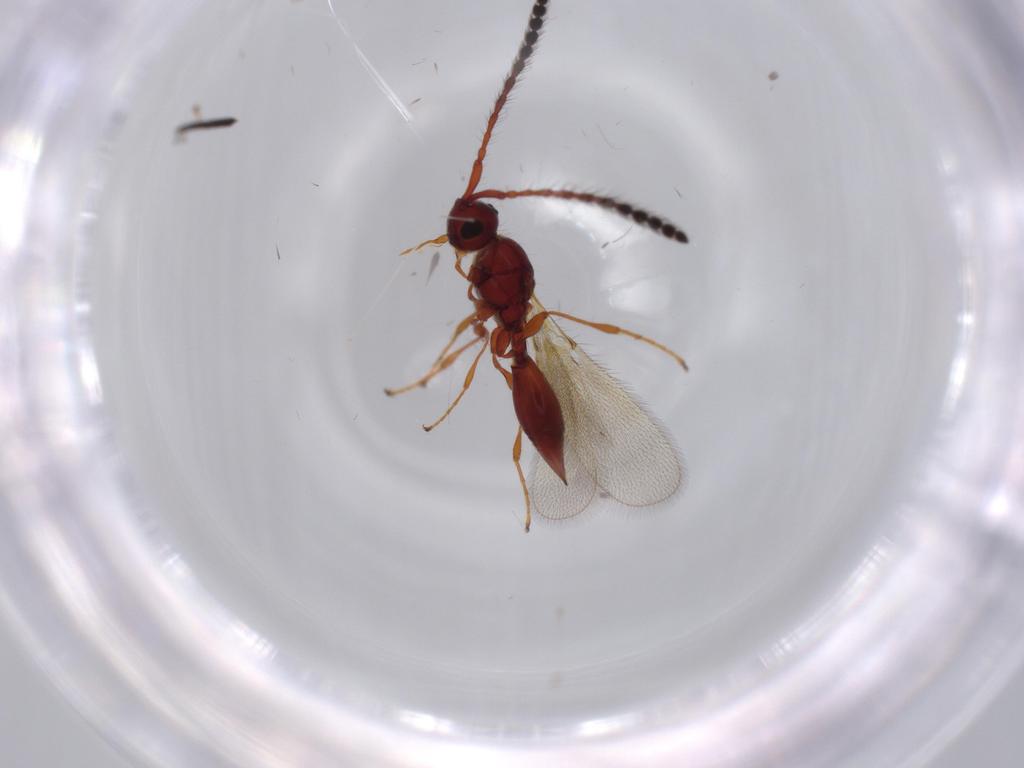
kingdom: Animalia
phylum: Arthropoda
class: Insecta
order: Hymenoptera
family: Diapriidae
